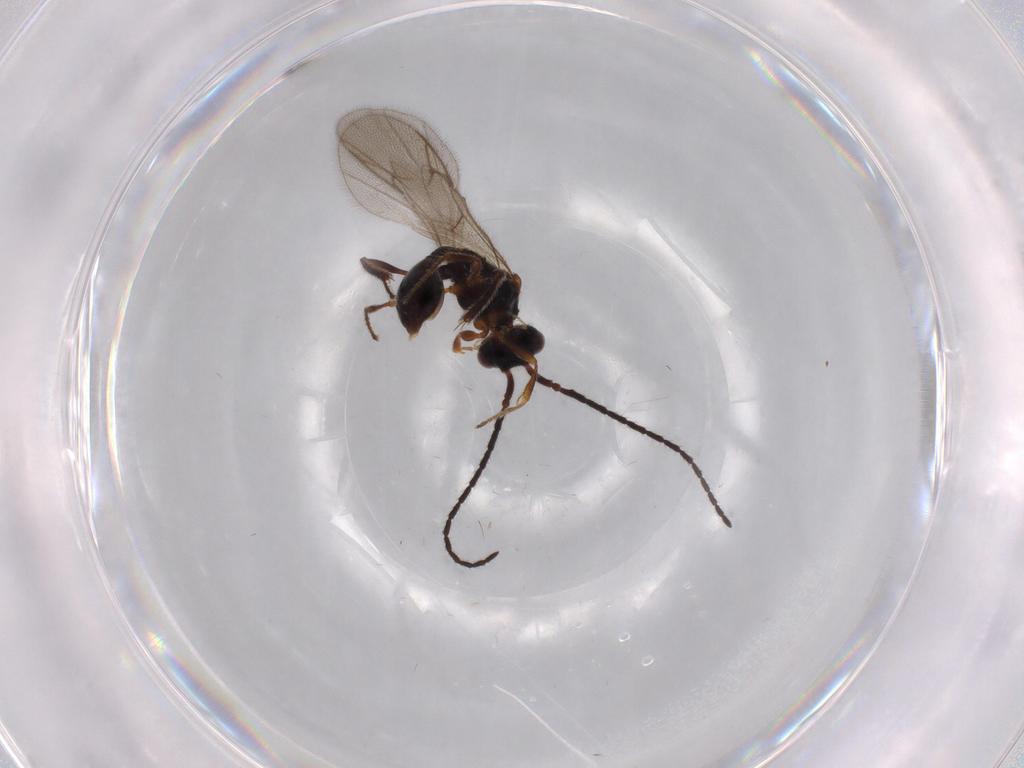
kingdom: Animalia
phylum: Arthropoda
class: Insecta
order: Hymenoptera
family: Diapriidae
